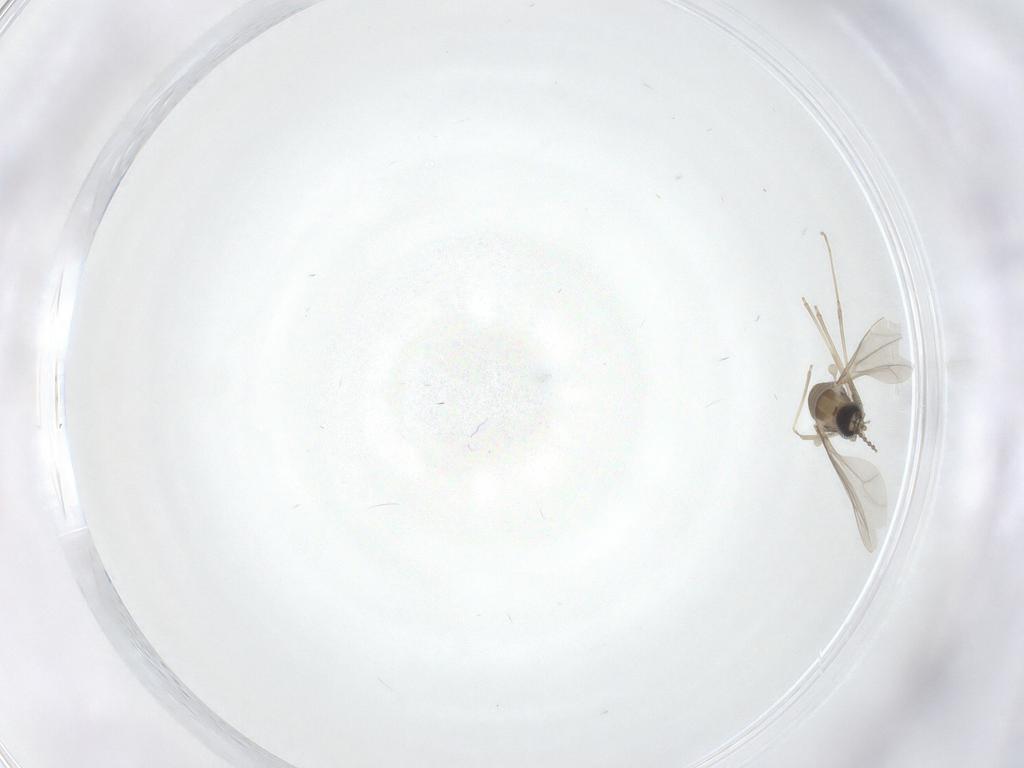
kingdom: Animalia
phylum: Arthropoda
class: Insecta
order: Diptera
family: Cecidomyiidae
